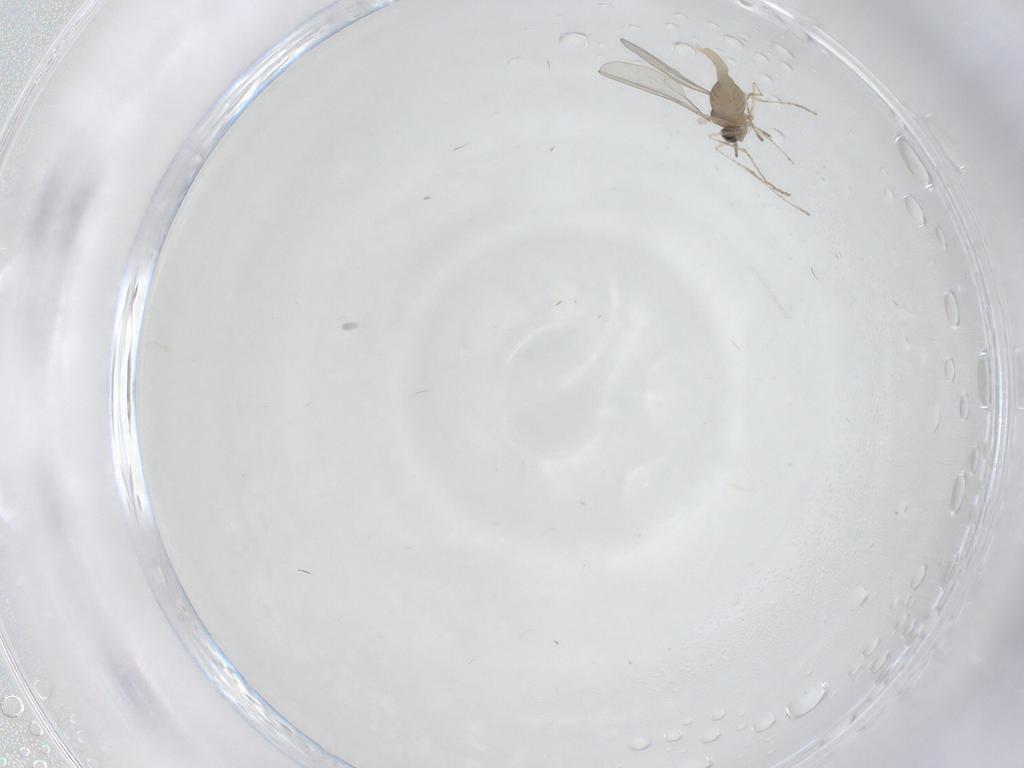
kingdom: Animalia
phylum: Arthropoda
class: Insecta
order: Diptera
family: Cecidomyiidae
